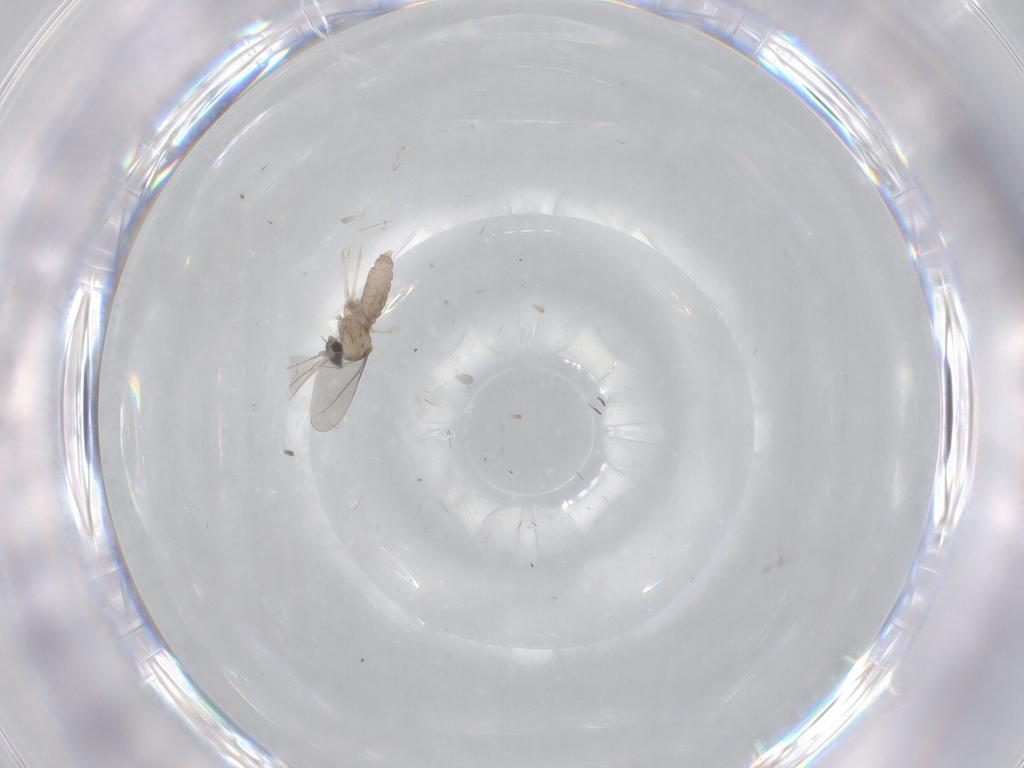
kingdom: Animalia
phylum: Arthropoda
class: Insecta
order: Diptera
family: Cecidomyiidae
